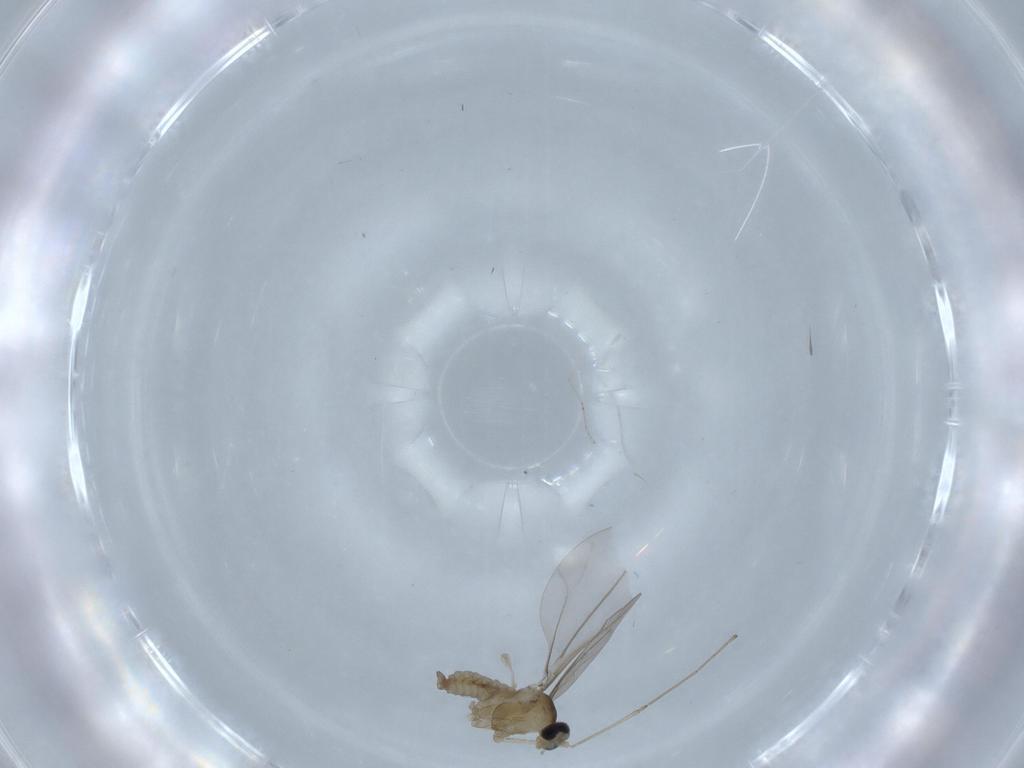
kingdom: Animalia
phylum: Arthropoda
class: Insecta
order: Diptera
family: Cecidomyiidae
